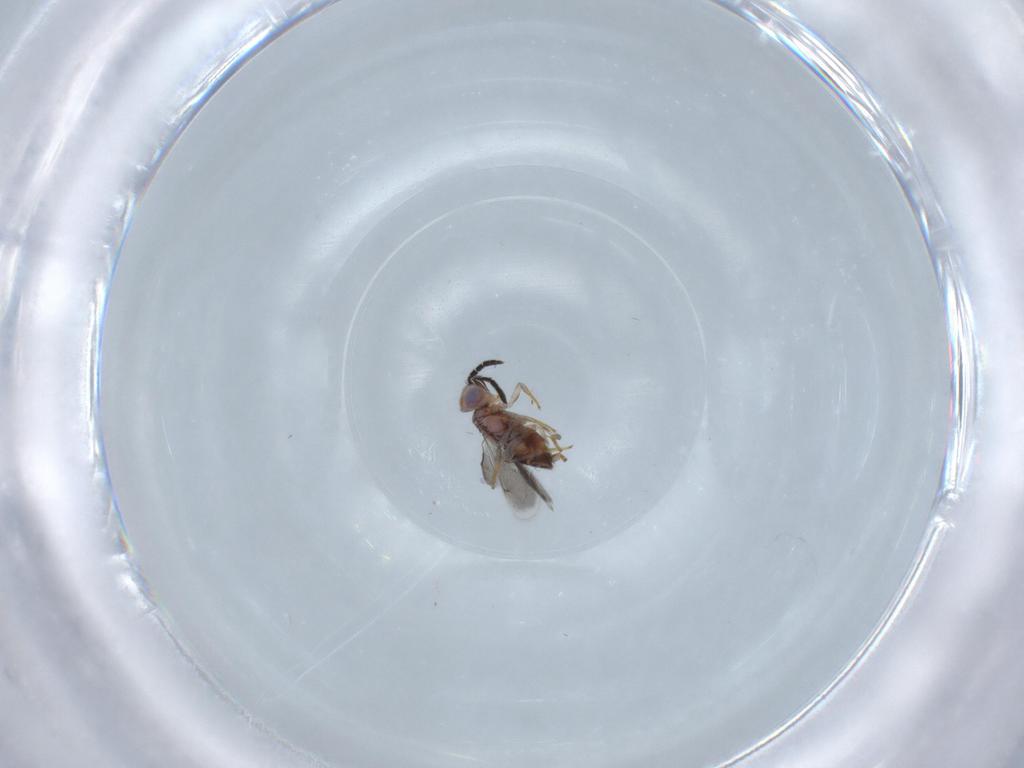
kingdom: Animalia
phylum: Arthropoda
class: Insecta
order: Hymenoptera
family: Aphelinidae
